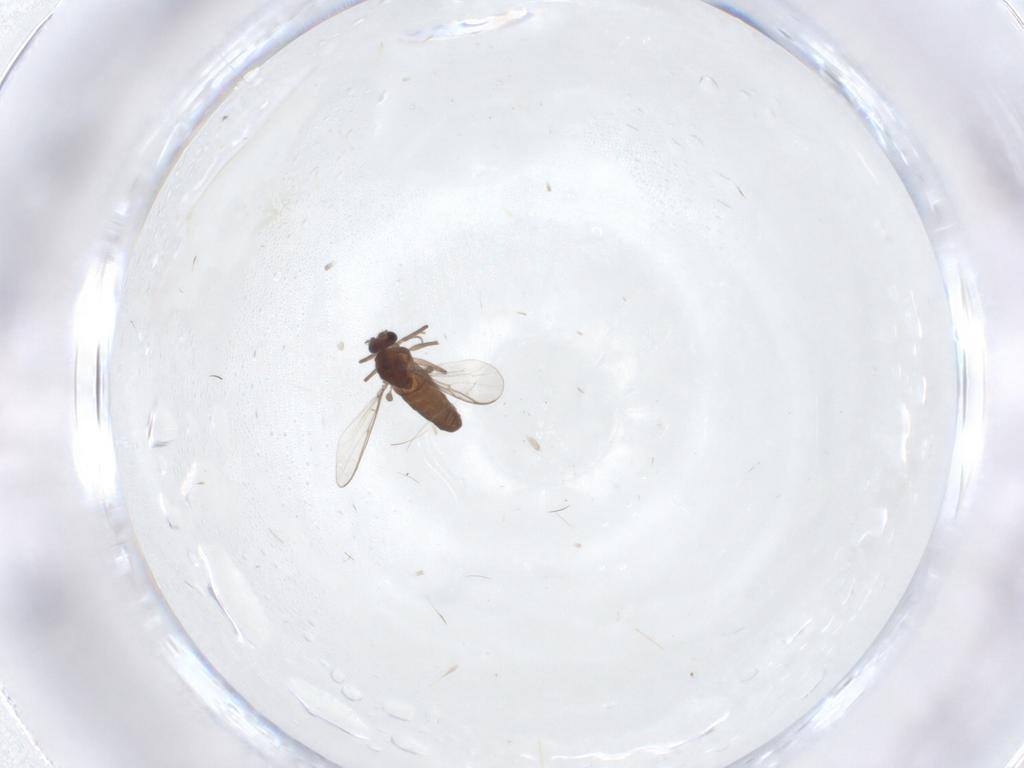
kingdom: Animalia
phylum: Arthropoda
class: Insecta
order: Diptera
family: Chironomidae
